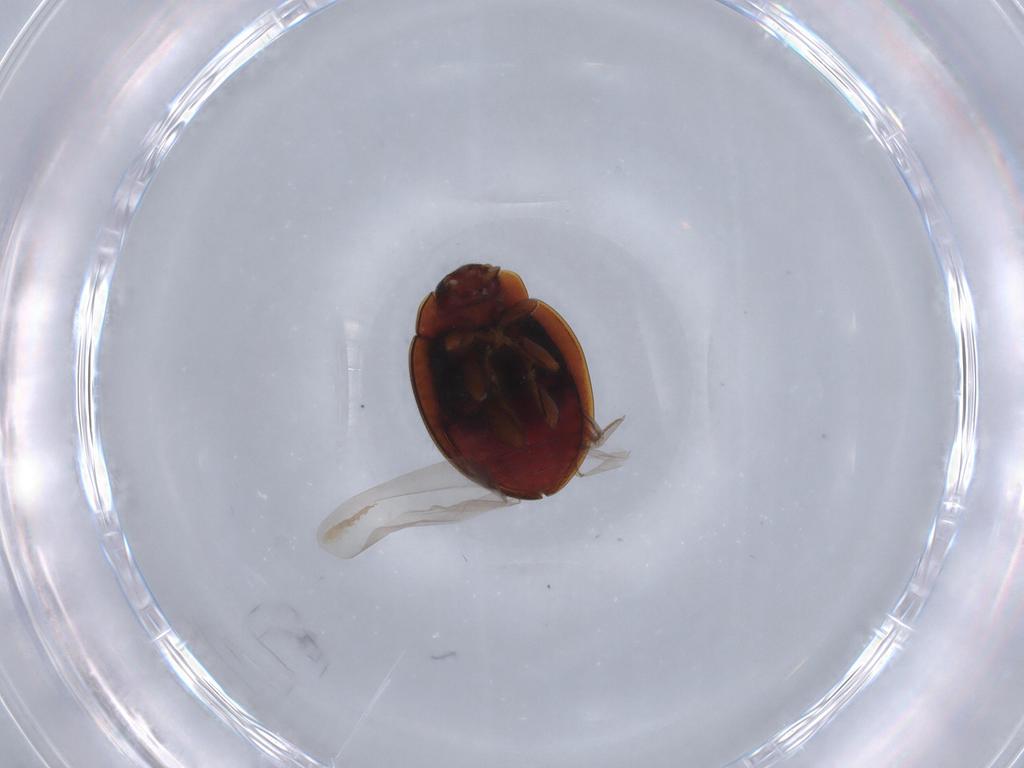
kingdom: Animalia
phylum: Arthropoda
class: Insecta
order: Coleoptera
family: Coccinellidae
